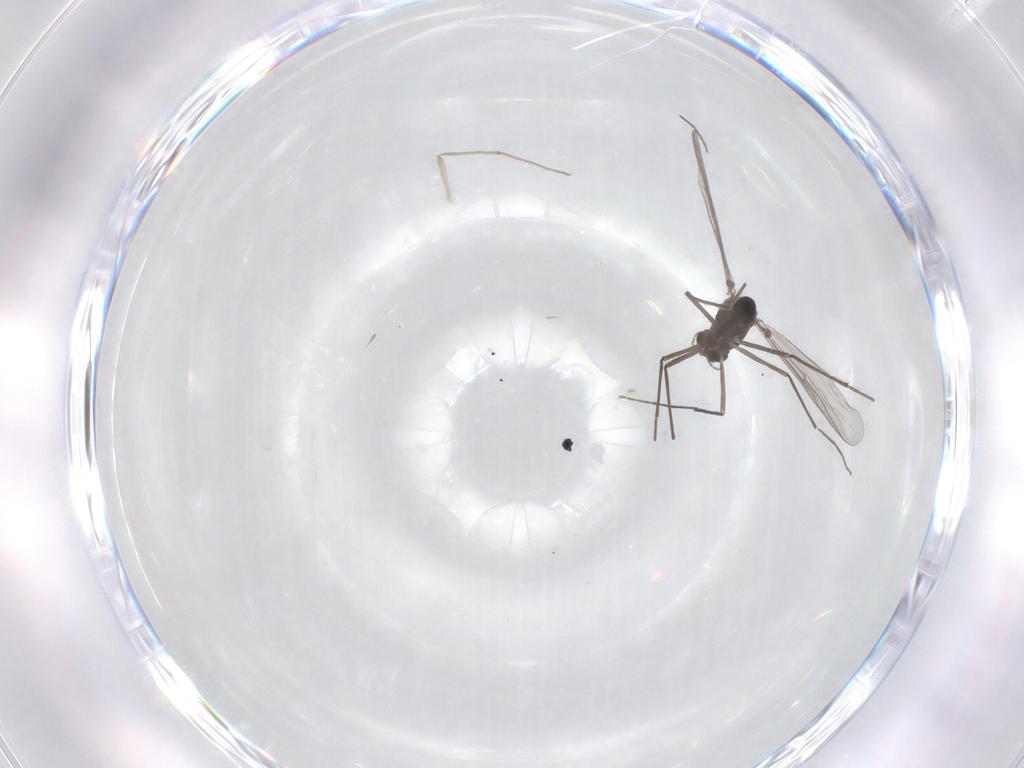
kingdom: Animalia
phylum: Arthropoda
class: Insecta
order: Diptera
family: Chironomidae
